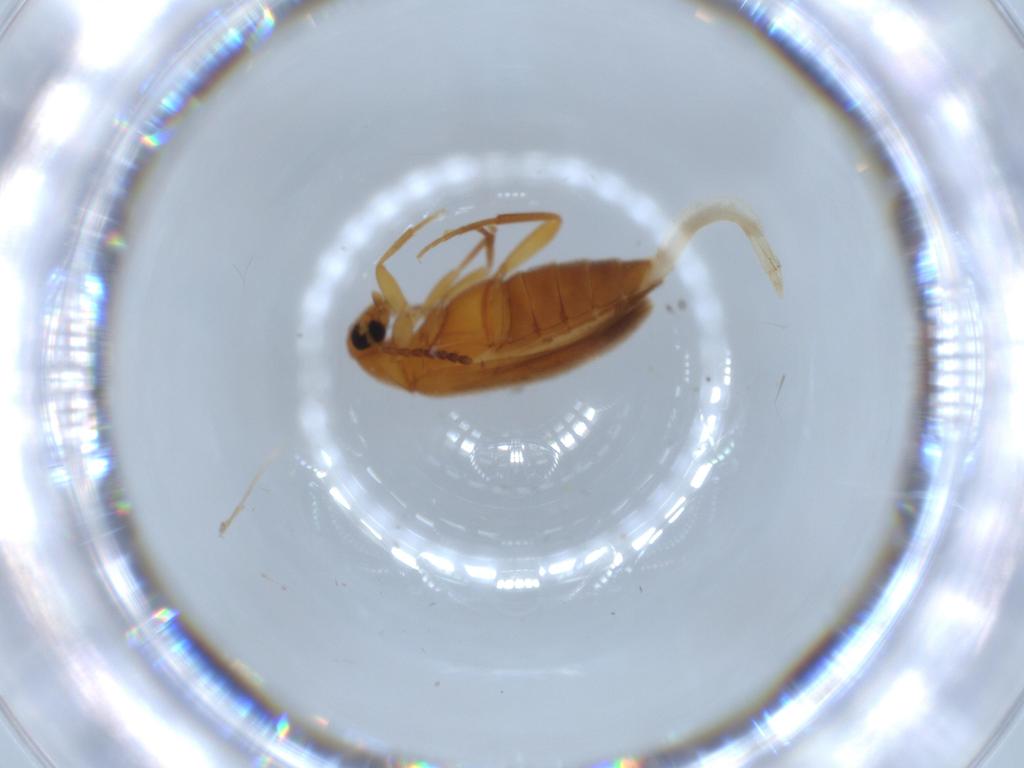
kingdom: Animalia
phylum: Arthropoda
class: Insecta
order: Coleoptera
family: Scraptiidae
